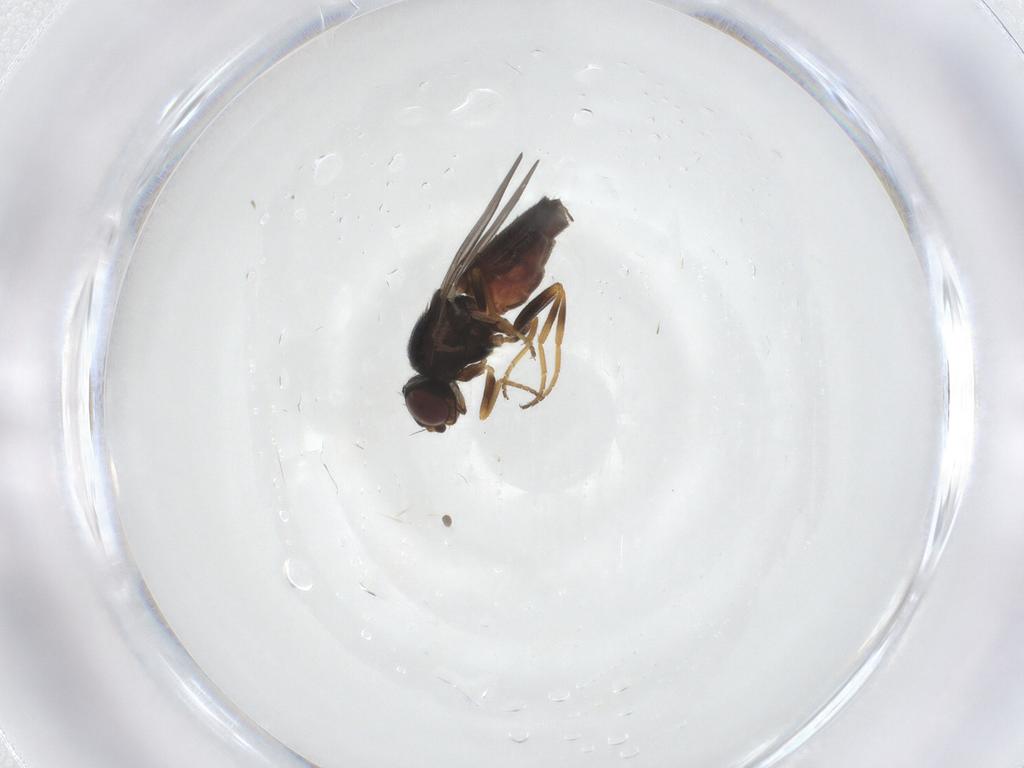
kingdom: Animalia
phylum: Arthropoda
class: Insecta
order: Diptera
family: Chloropidae
